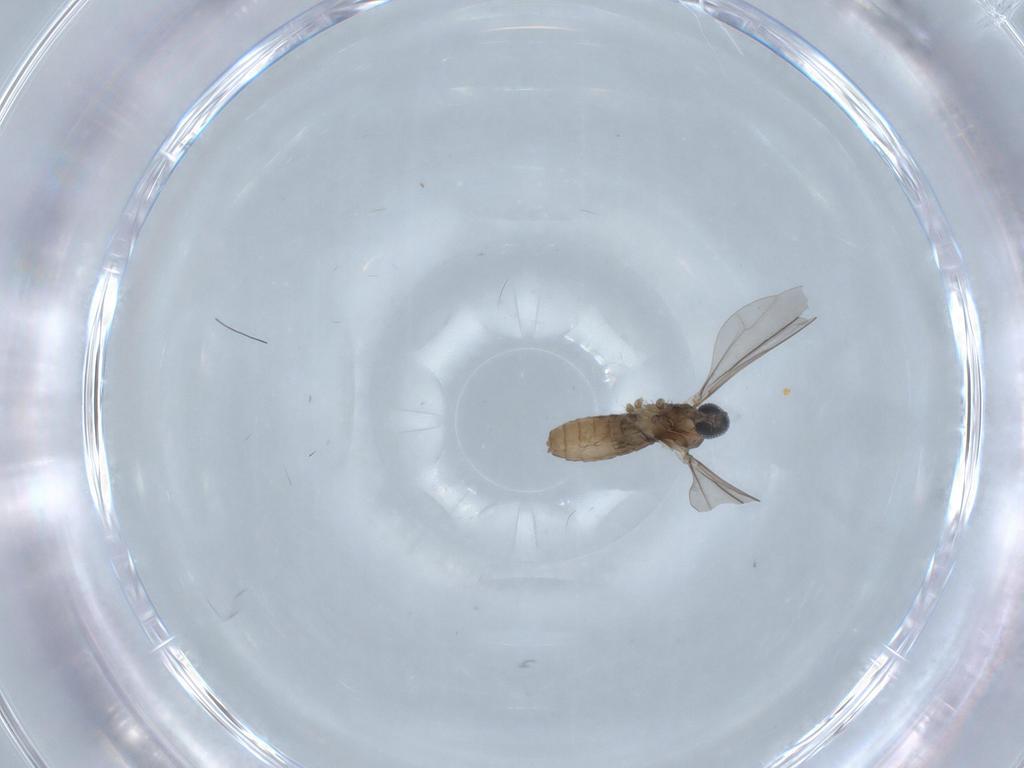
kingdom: Animalia
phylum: Arthropoda
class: Insecta
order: Diptera
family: Cecidomyiidae
